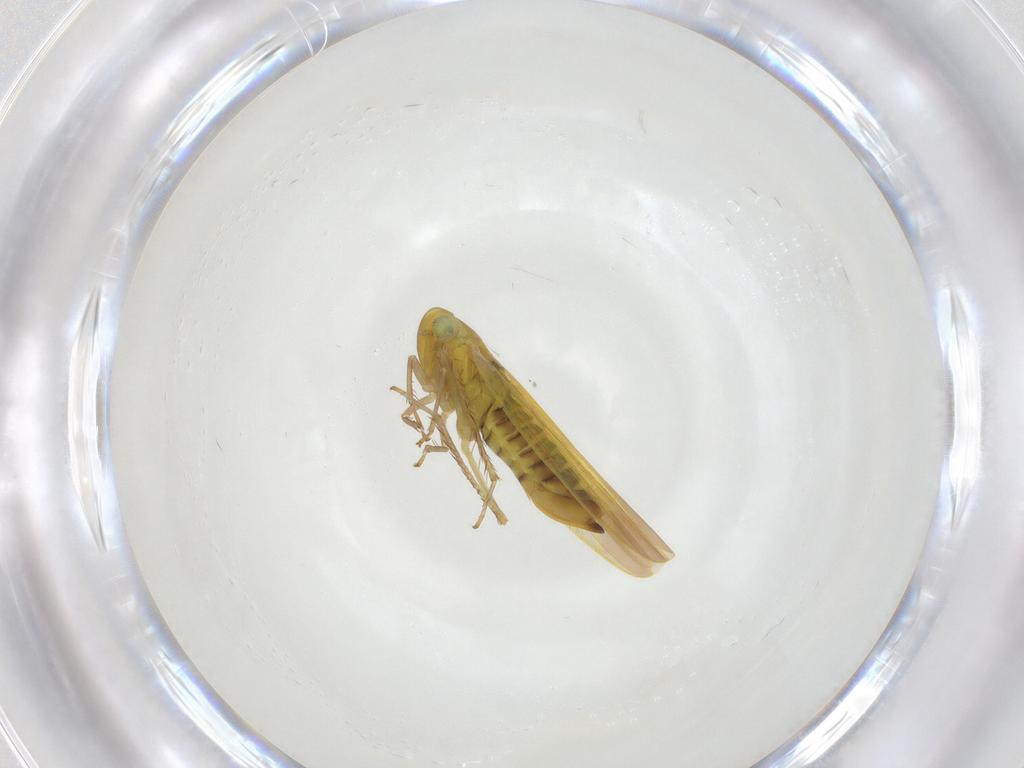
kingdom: Animalia
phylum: Arthropoda
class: Insecta
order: Hemiptera
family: Cicadellidae
